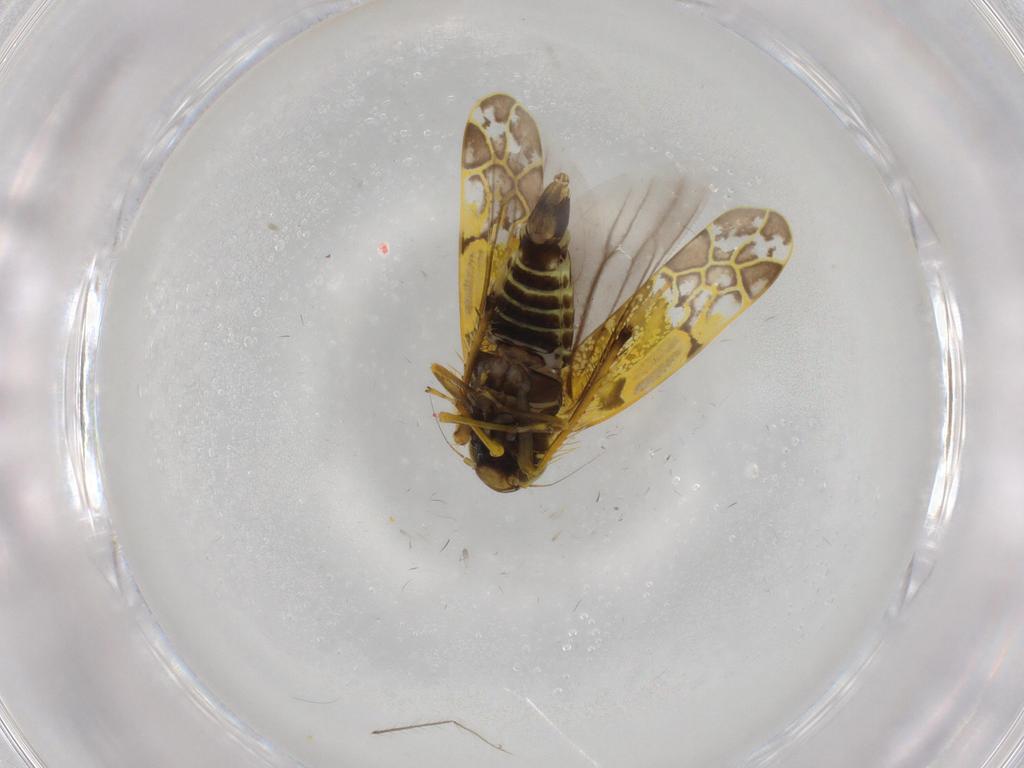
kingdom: Animalia
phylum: Arthropoda
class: Insecta
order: Hemiptera
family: Cicadellidae
